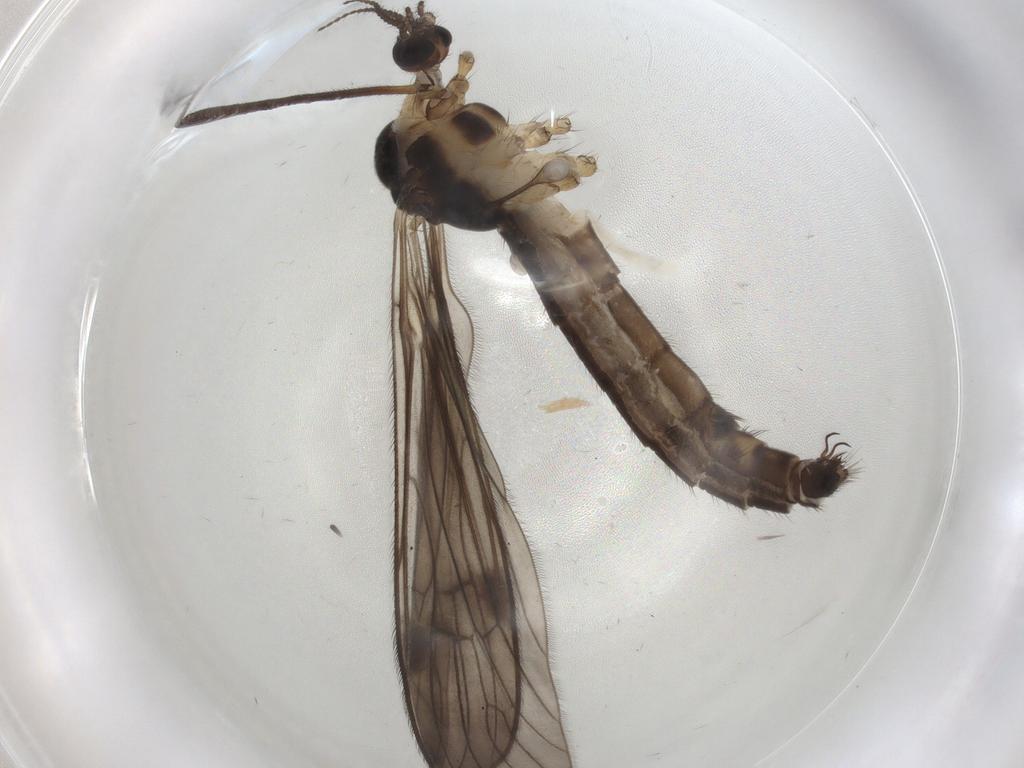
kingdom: Animalia
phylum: Arthropoda
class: Insecta
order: Diptera
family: Limoniidae
